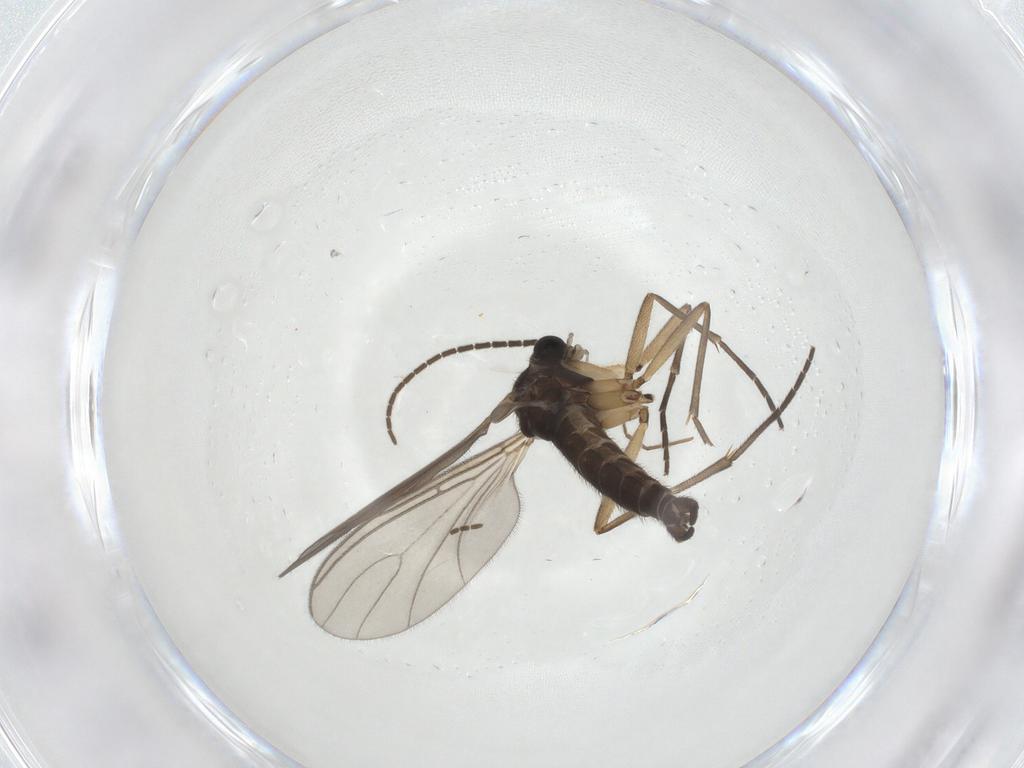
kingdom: Animalia
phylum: Arthropoda
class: Insecta
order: Diptera
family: Sciaridae
